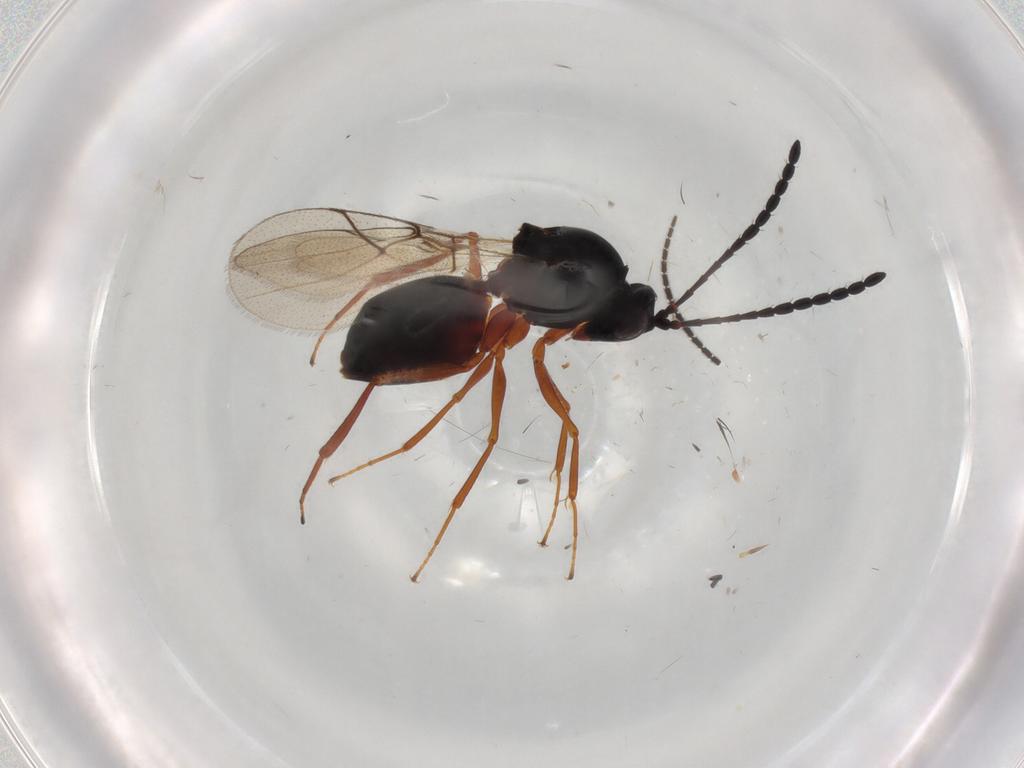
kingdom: Animalia
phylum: Arthropoda
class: Insecta
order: Hymenoptera
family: Figitidae
